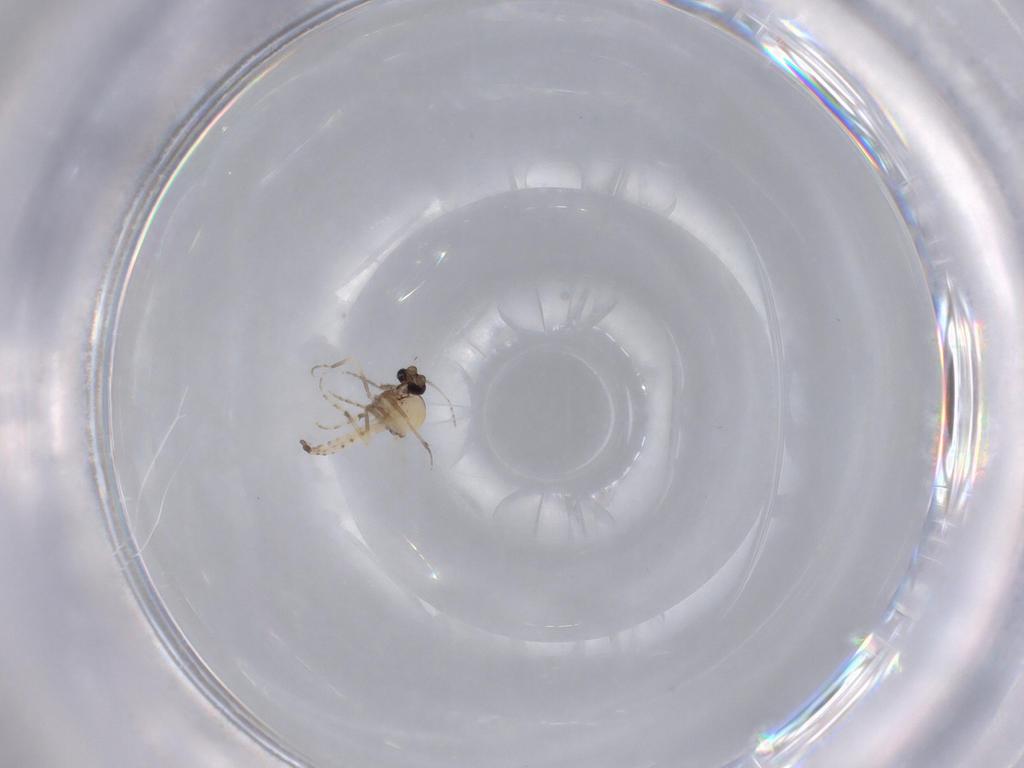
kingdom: Animalia
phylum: Arthropoda
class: Insecta
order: Diptera
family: Ceratopogonidae
